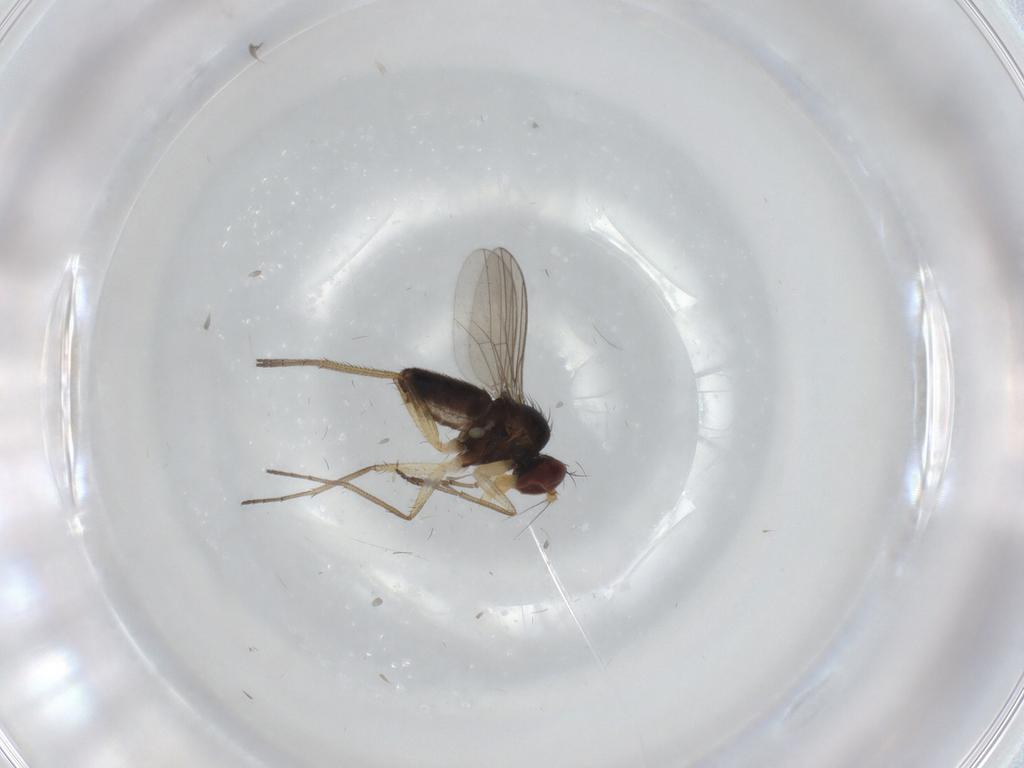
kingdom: Animalia
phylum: Arthropoda
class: Insecta
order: Diptera
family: Dolichopodidae
